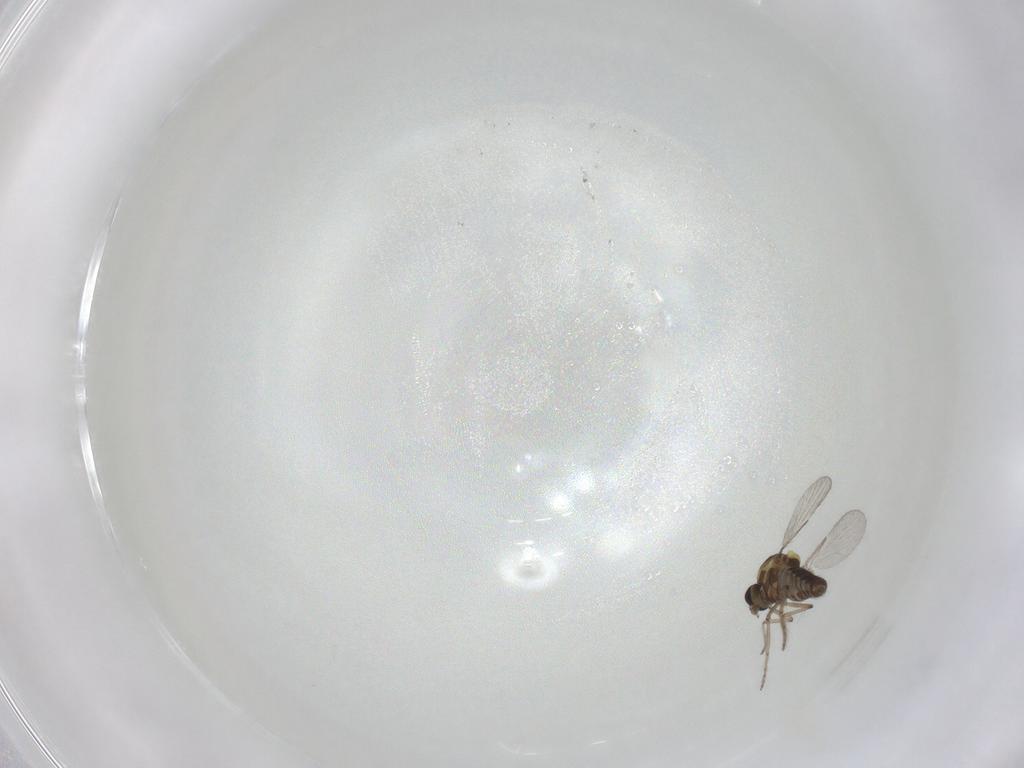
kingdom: Animalia
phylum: Arthropoda
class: Insecta
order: Diptera
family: Ceratopogonidae
